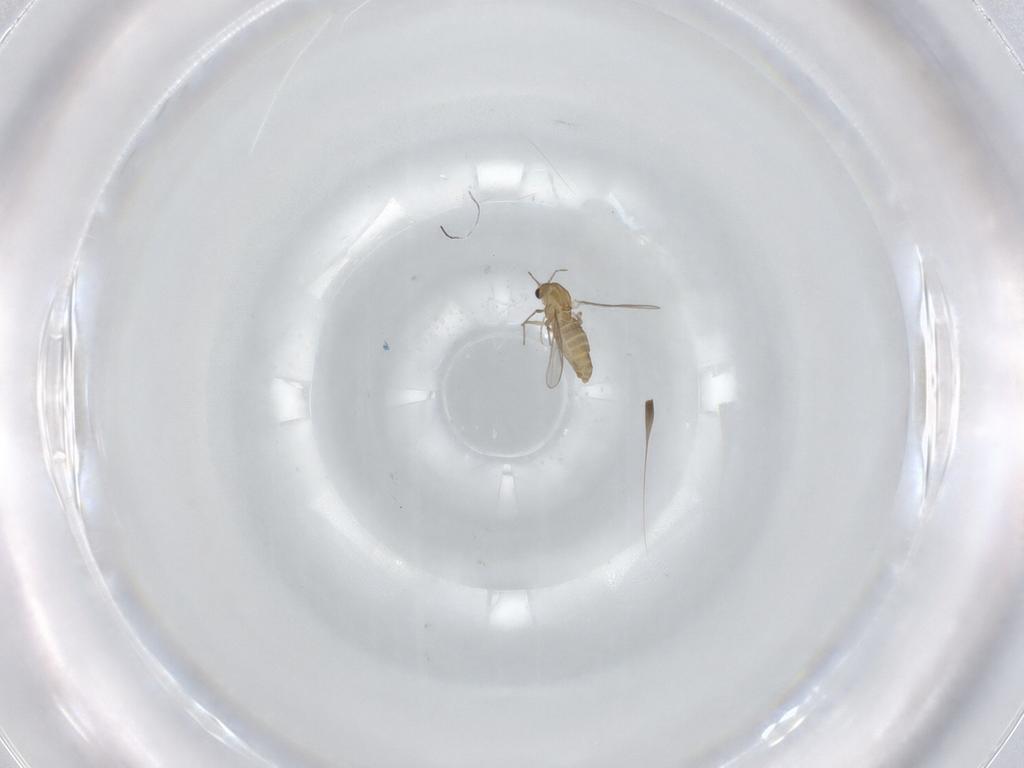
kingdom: Animalia
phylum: Arthropoda
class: Insecta
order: Diptera
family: Chironomidae
